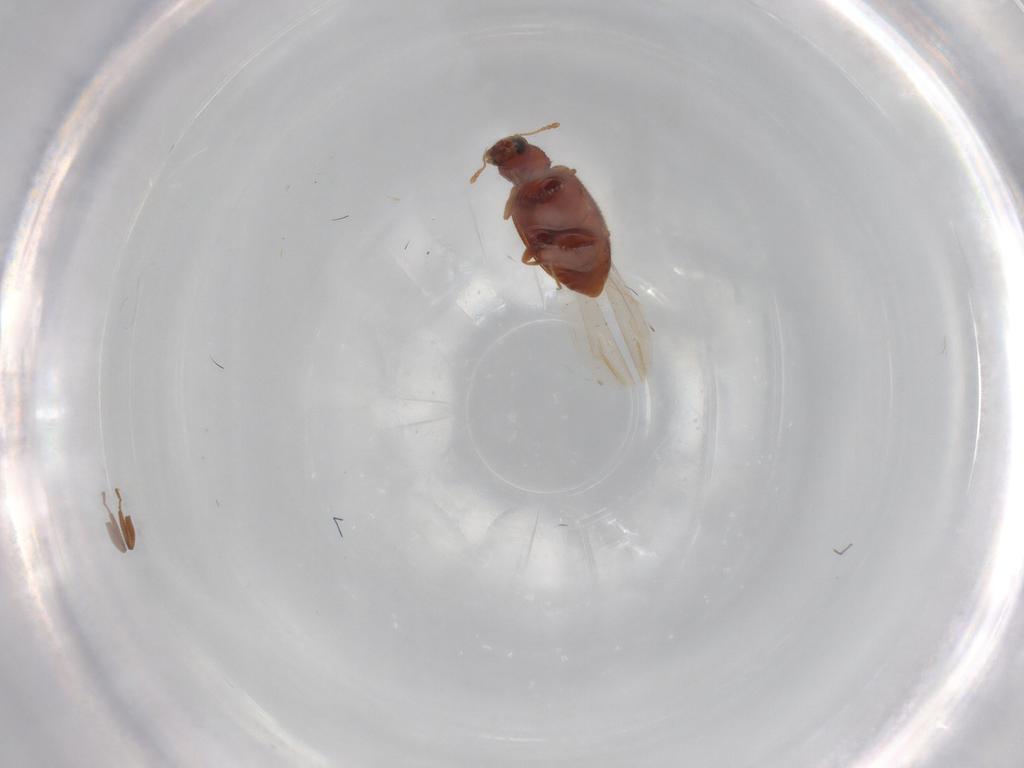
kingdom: Animalia
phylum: Arthropoda
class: Insecta
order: Coleoptera
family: Latridiidae
